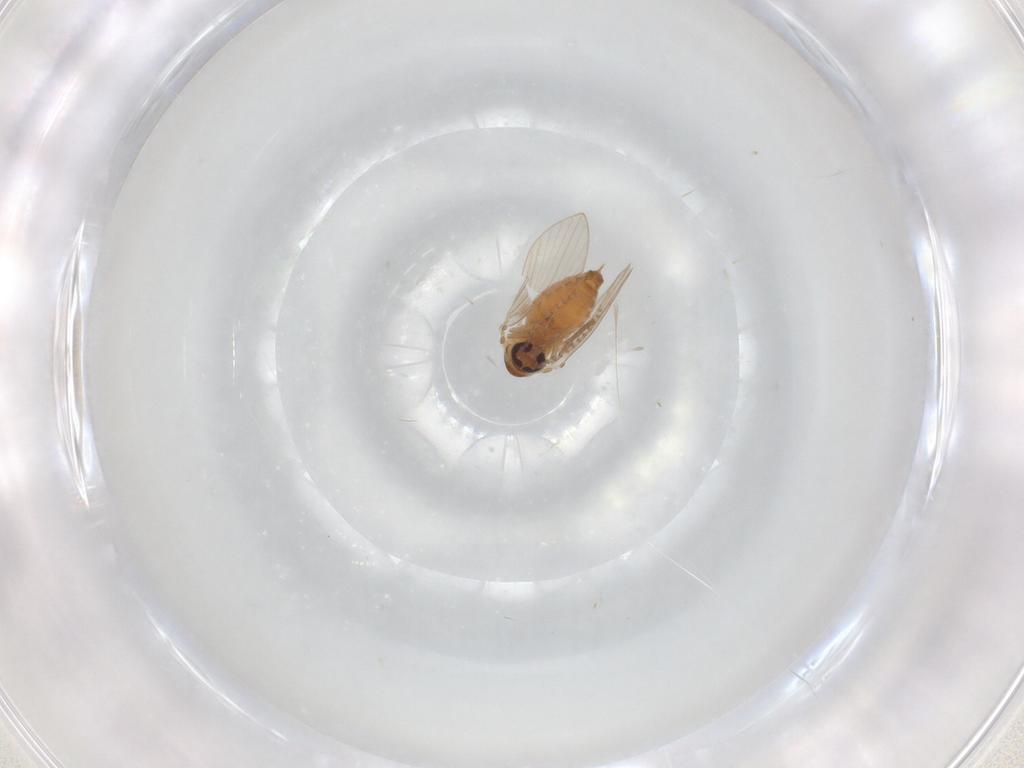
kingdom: Animalia
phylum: Arthropoda
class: Insecta
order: Diptera
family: Psychodidae
